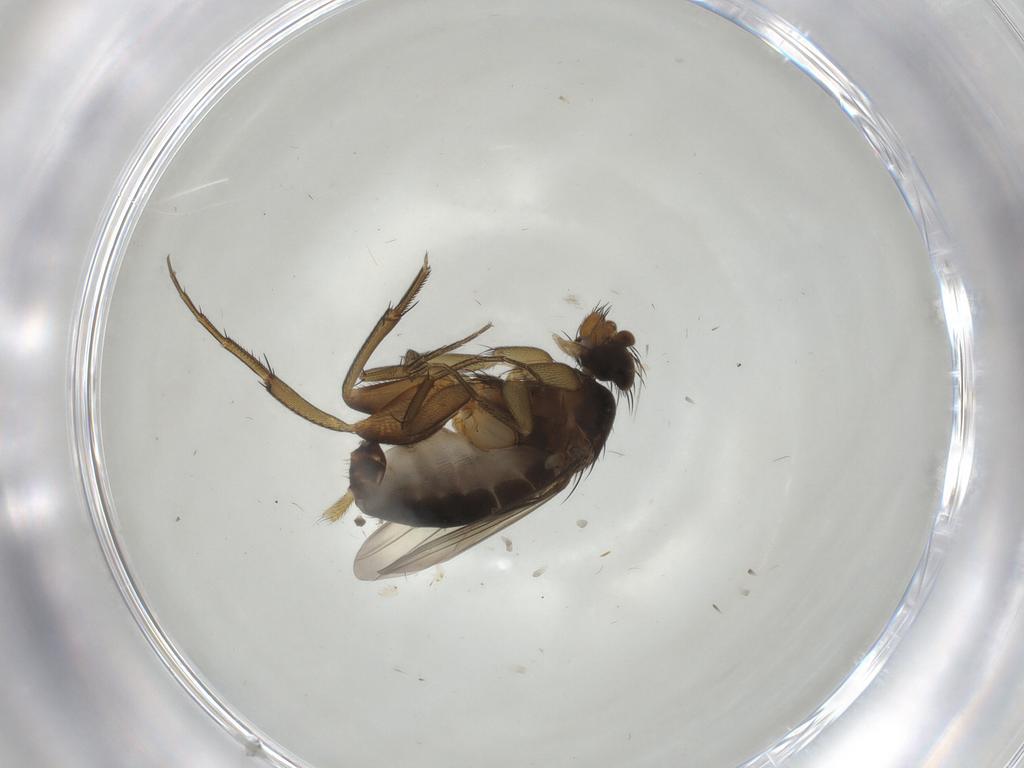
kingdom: Animalia
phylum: Arthropoda
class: Insecta
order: Diptera
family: Phoridae
